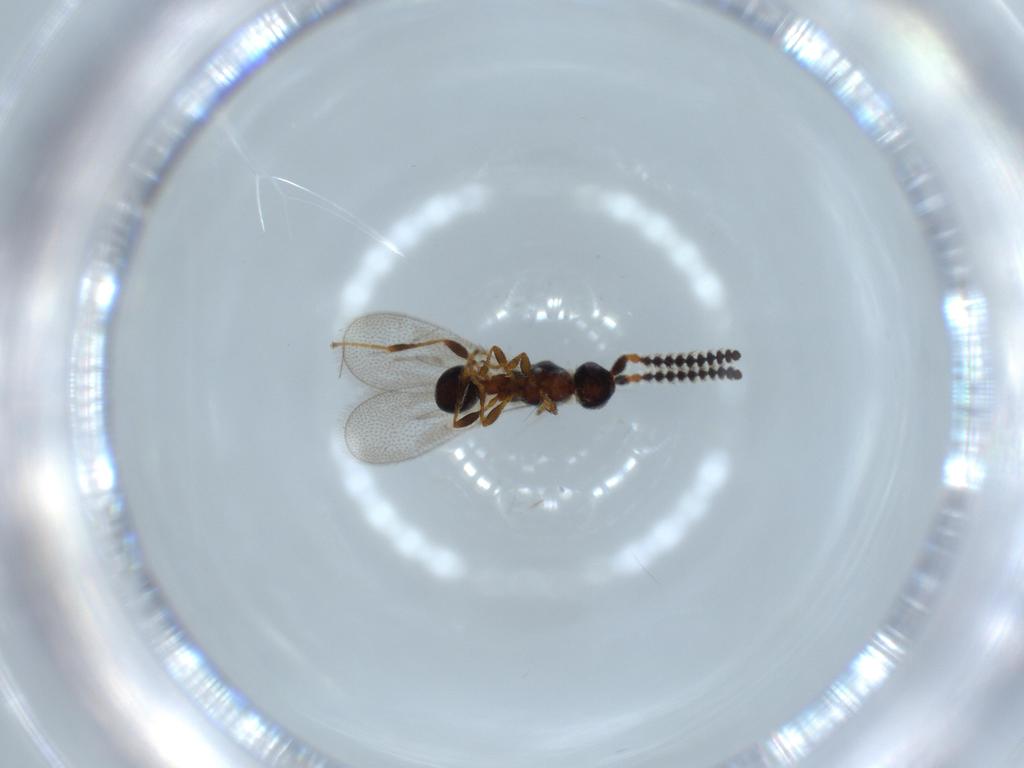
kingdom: Animalia
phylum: Arthropoda
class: Insecta
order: Hymenoptera
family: Diapriidae
